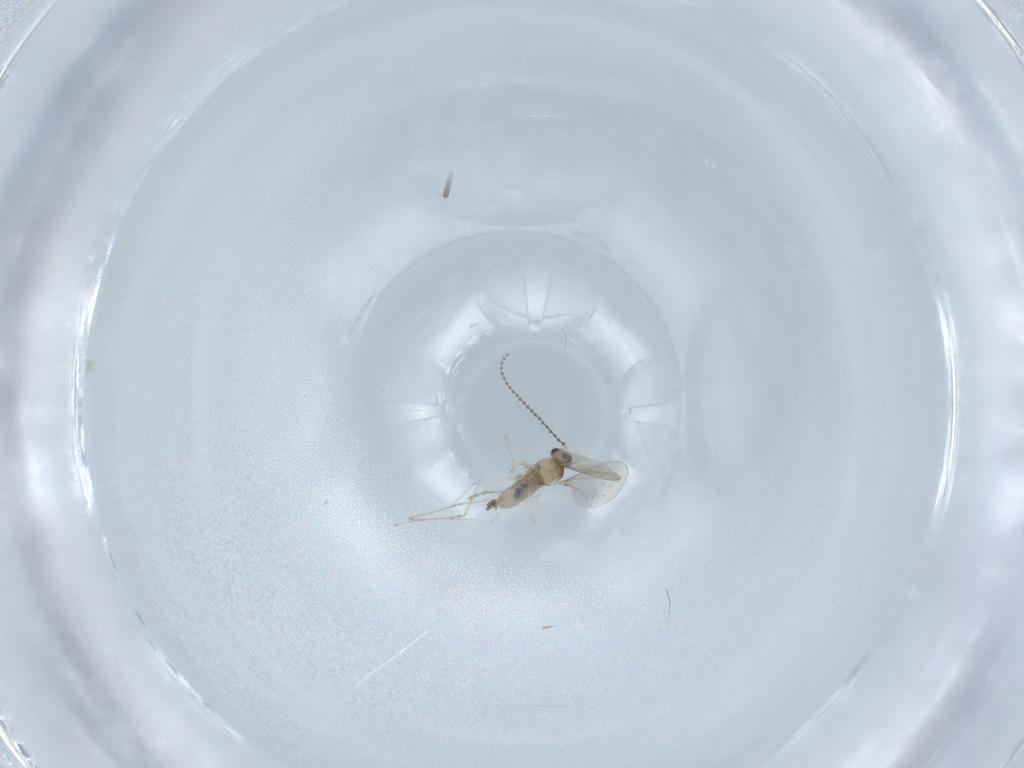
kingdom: Animalia
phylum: Arthropoda
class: Insecta
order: Diptera
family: Cecidomyiidae
